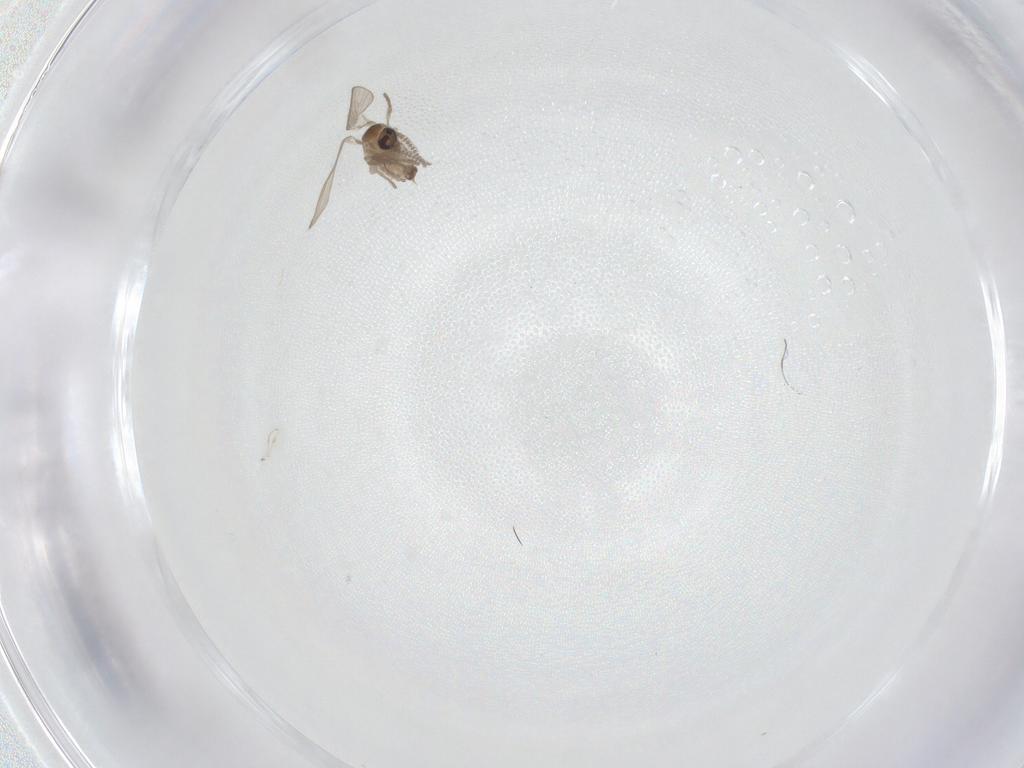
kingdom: Animalia
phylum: Arthropoda
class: Insecta
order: Diptera
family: Psychodidae
